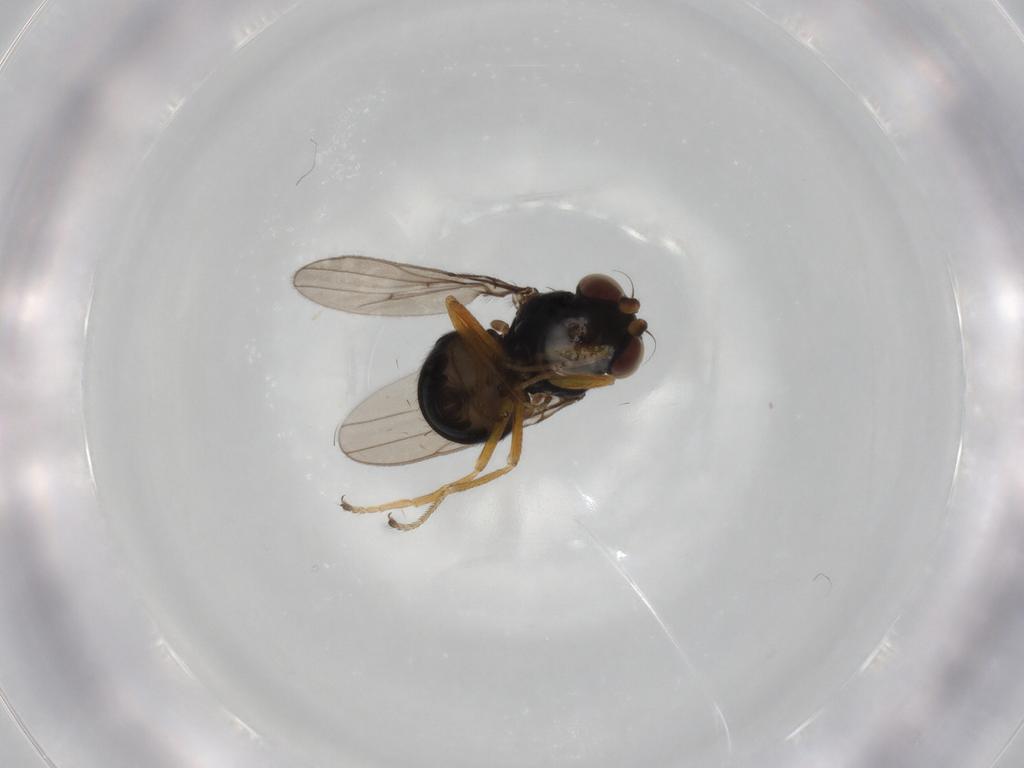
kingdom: Animalia
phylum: Arthropoda
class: Insecta
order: Diptera
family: Ephydridae
